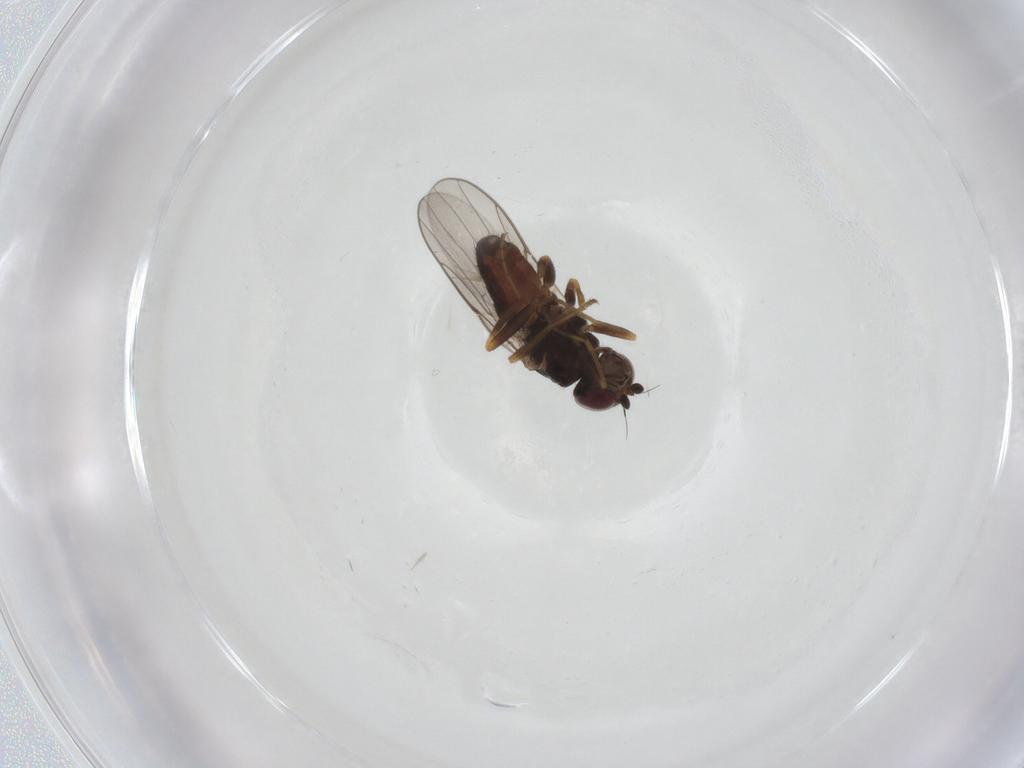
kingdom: Animalia
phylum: Arthropoda
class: Insecta
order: Diptera
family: Chloropidae
